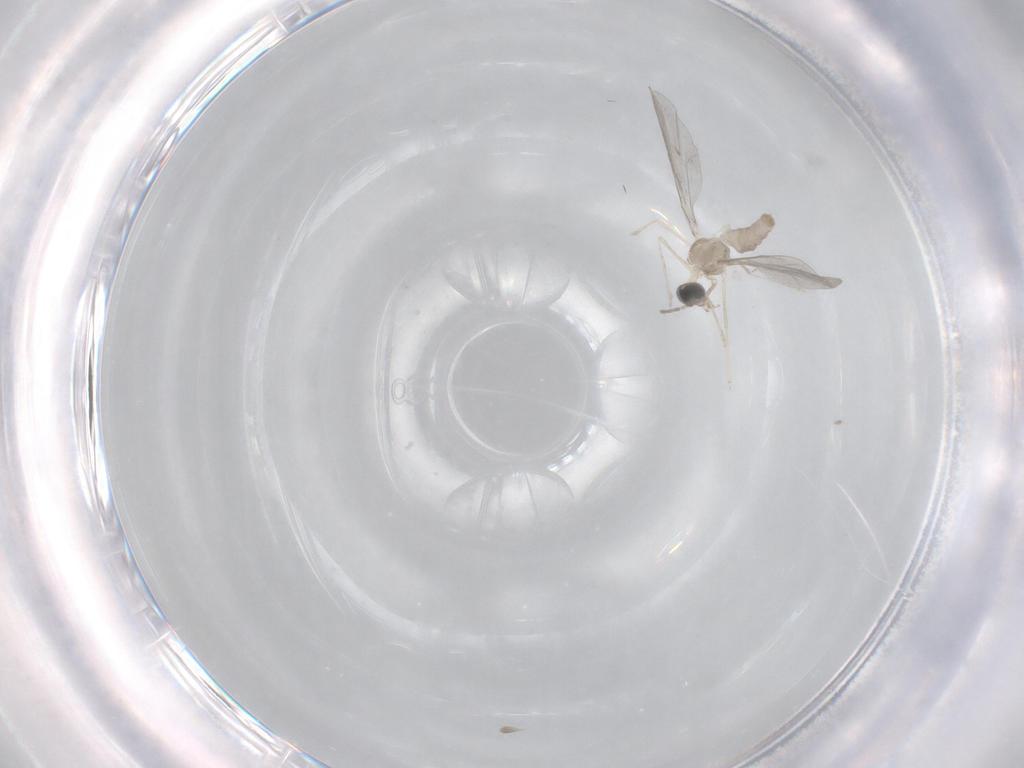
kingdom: Animalia
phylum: Arthropoda
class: Insecta
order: Diptera
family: Cecidomyiidae
